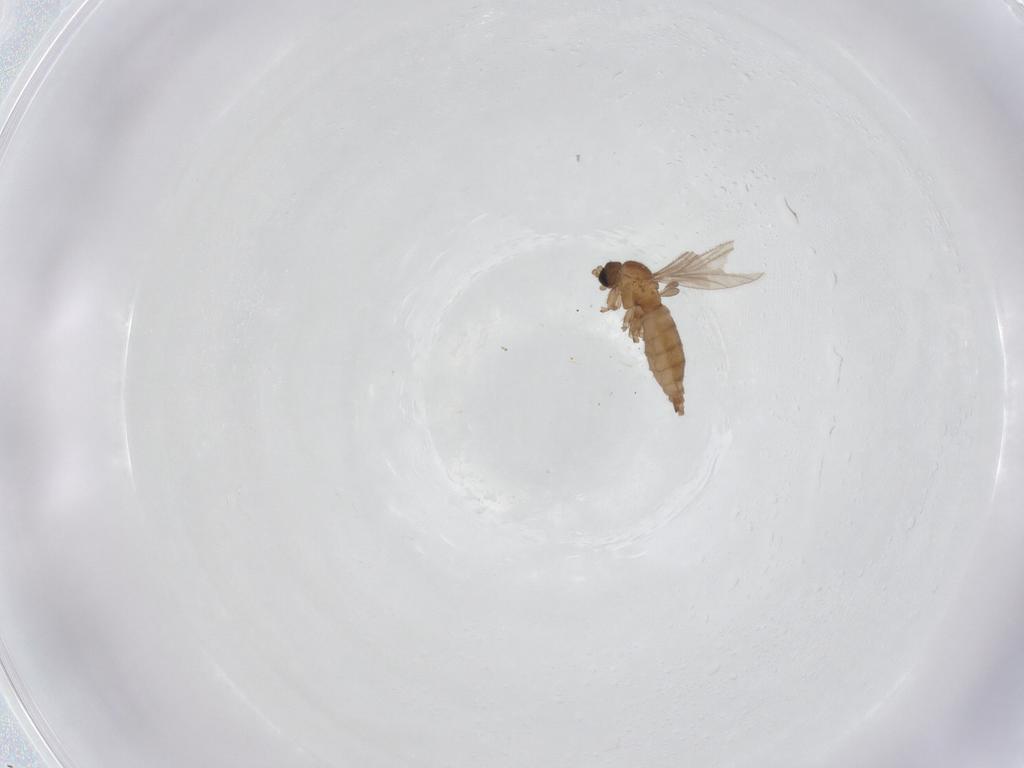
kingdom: Animalia
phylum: Arthropoda
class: Insecta
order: Diptera
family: Sciaridae
